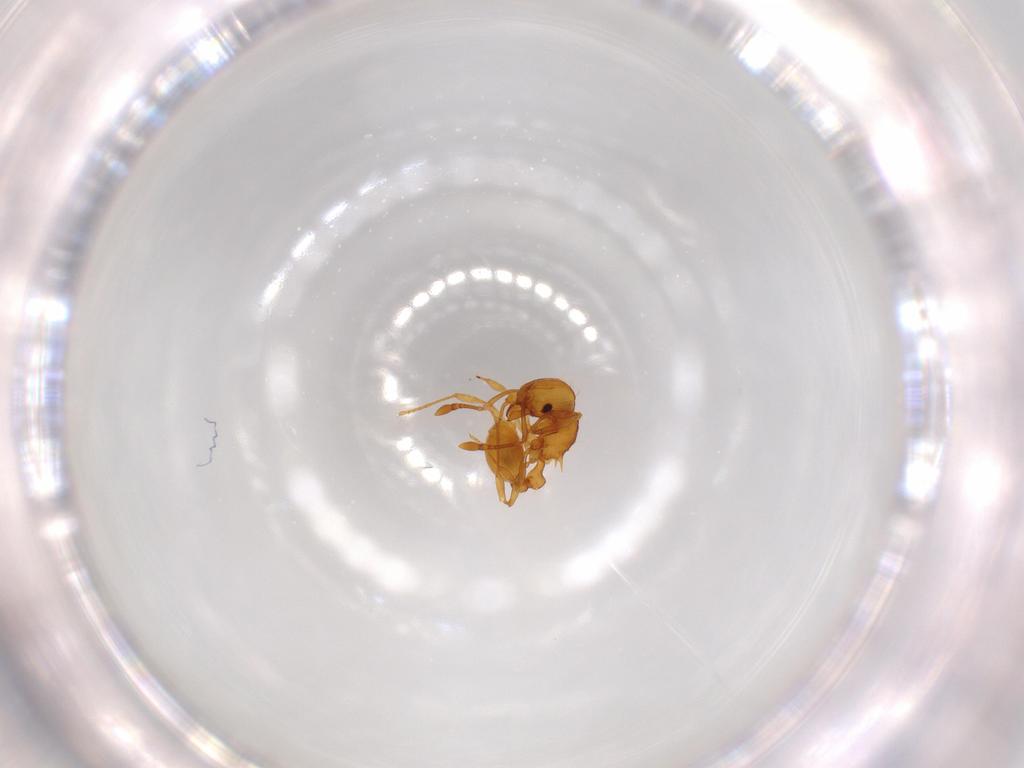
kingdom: Animalia
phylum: Arthropoda
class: Insecta
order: Hymenoptera
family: Formicidae
